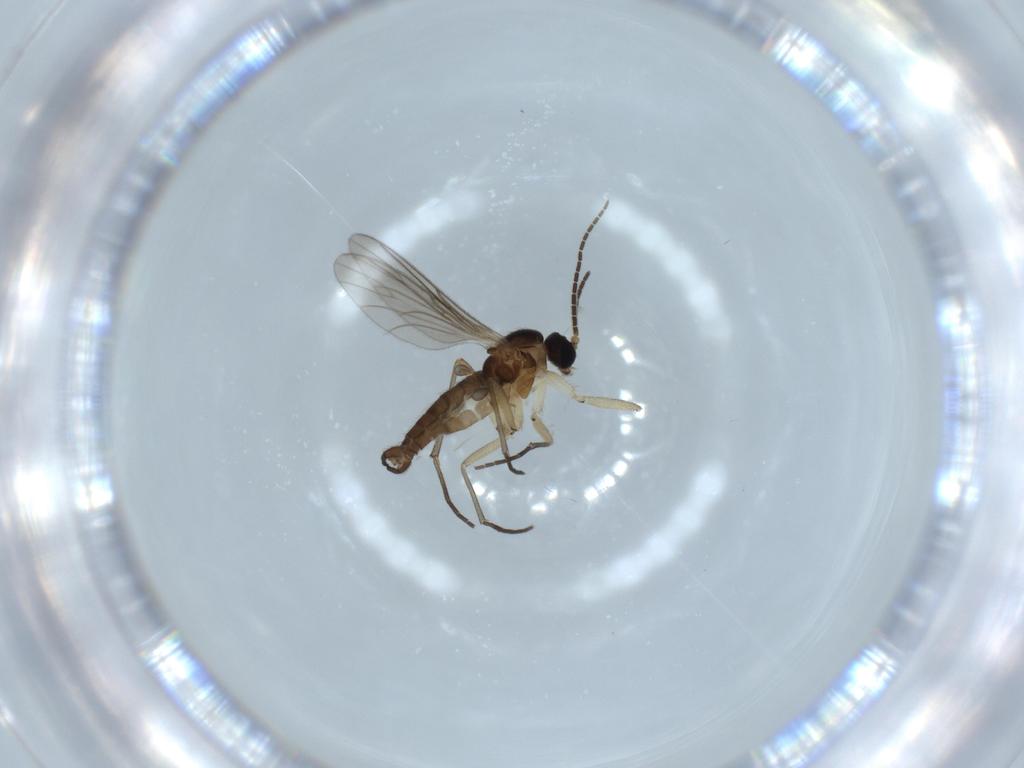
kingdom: Animalia
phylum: Arthropoda
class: Insecta
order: Diptera
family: Sciaridae
